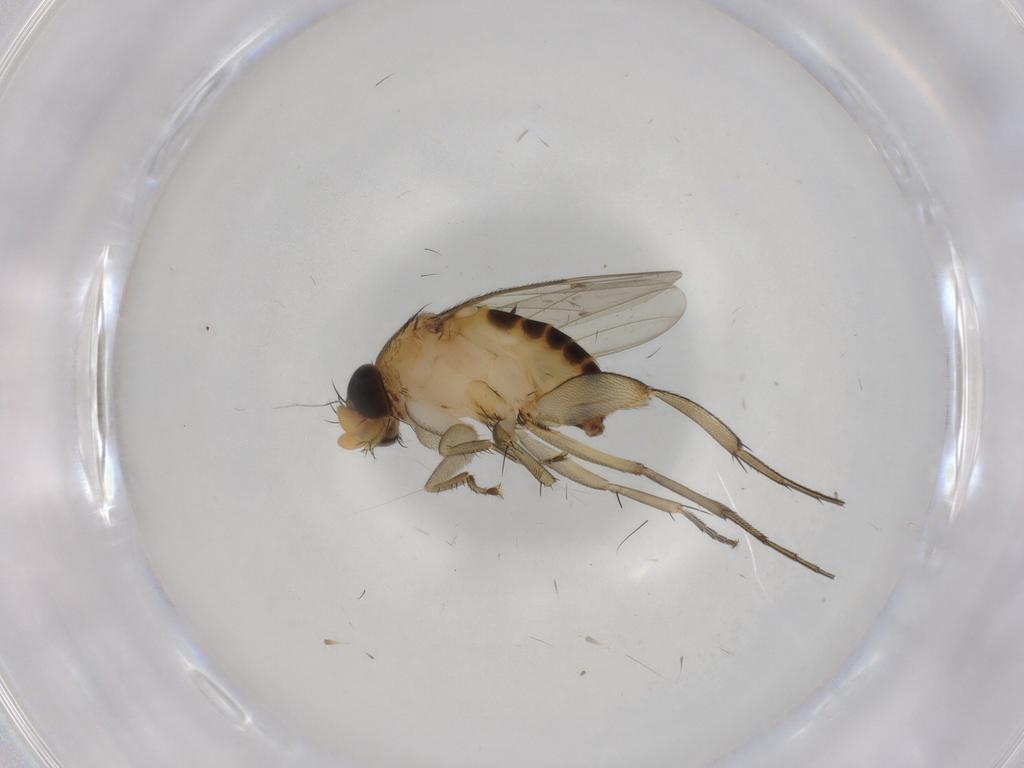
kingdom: Animalia
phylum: Arthropoda
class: Insecta
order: Diptera
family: Phoridae
